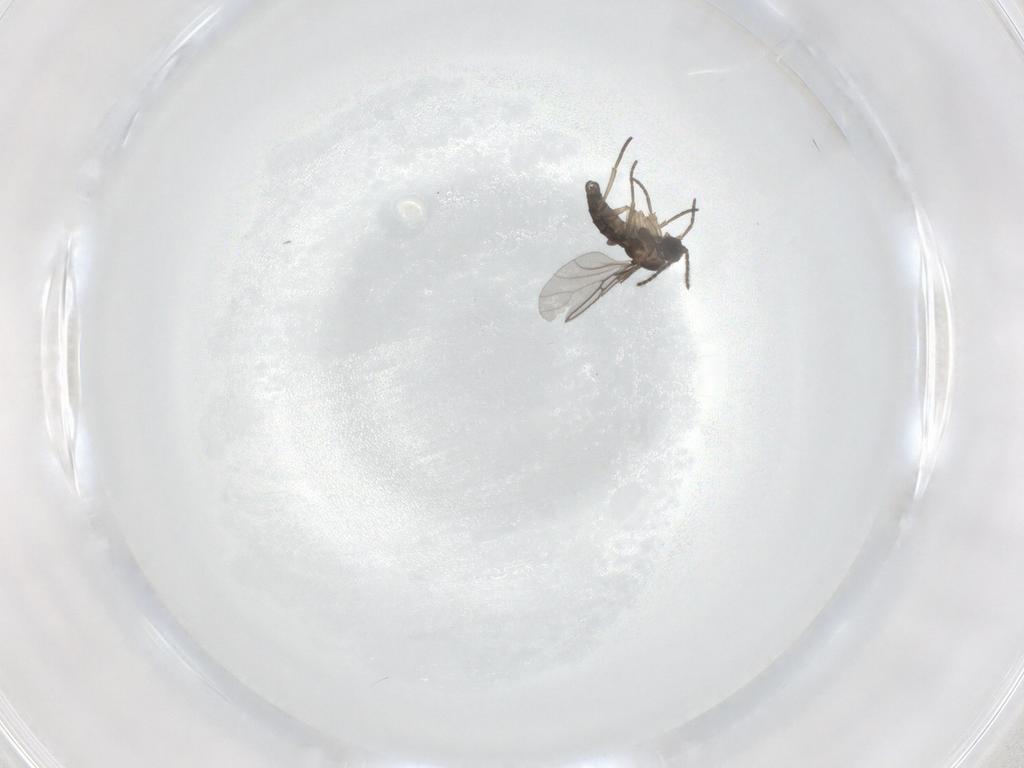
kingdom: Animalia
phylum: Arthropoda
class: Insecta
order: Diptera
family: Sciaridae
